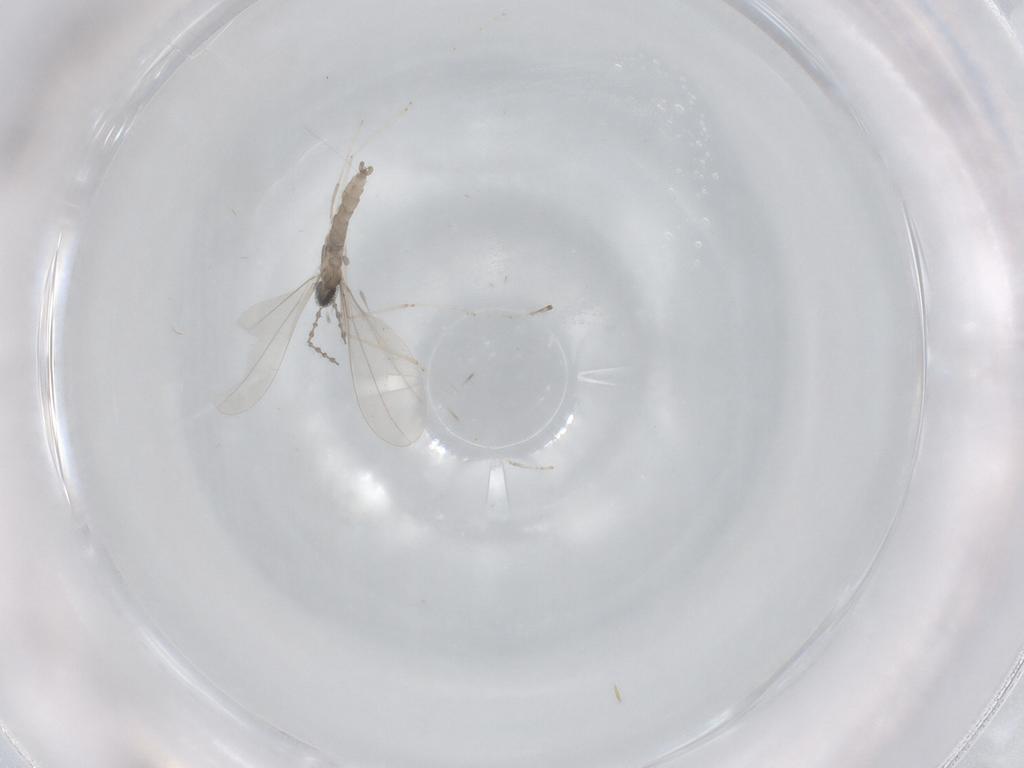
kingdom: Animalia
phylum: Arthropoda
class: Insecta
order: Diptera
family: Cecidomyiidae
